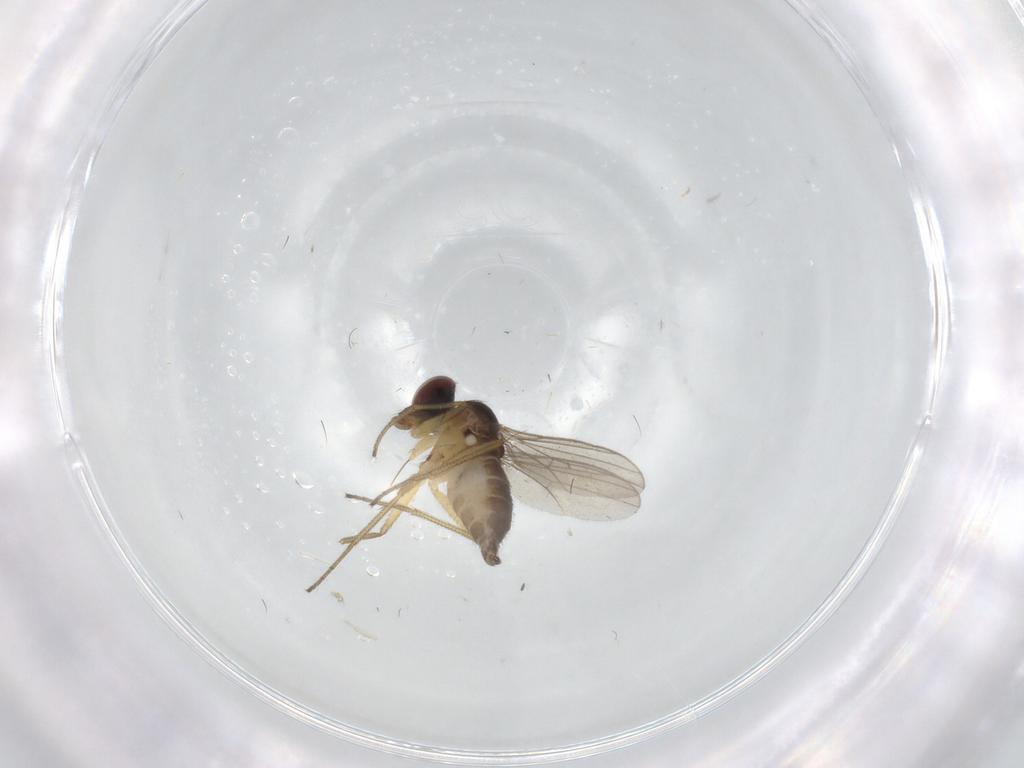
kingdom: Animalia
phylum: Arthropoda
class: Insecta
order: Diptera
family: Dolichopodidae
